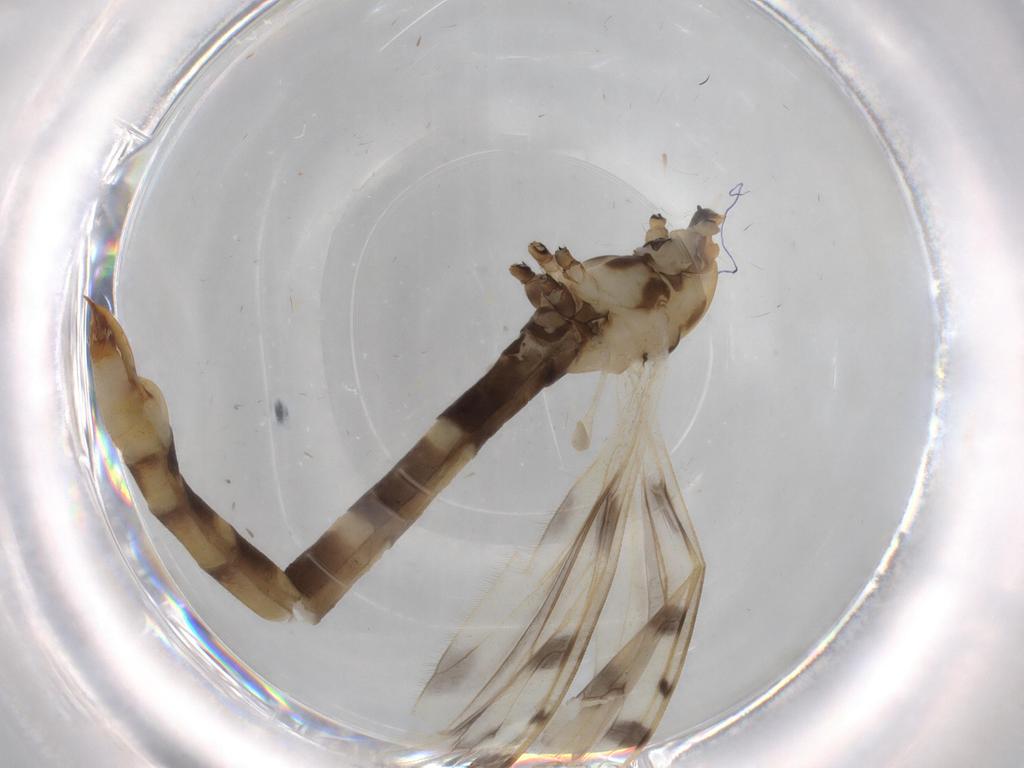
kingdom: Animalia
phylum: Arthropoda
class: Insecta
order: Diptera
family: Limoniidae
